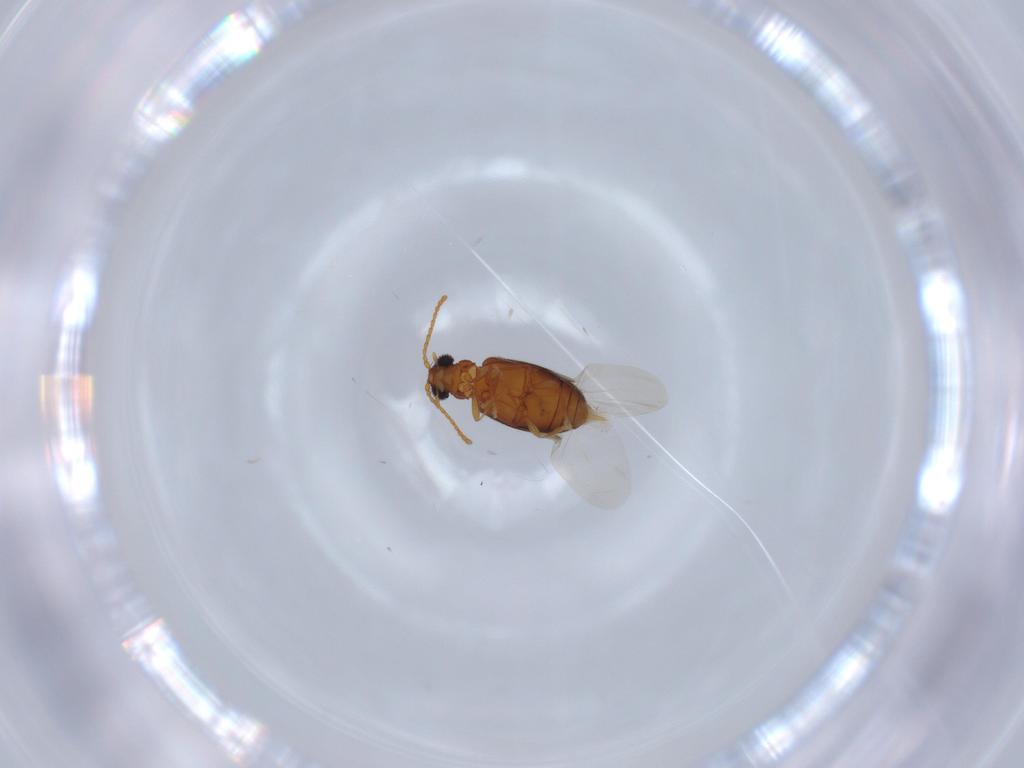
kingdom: Animalia
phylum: Arthropoda
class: Insecta
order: Coleoptera
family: Aderidae
